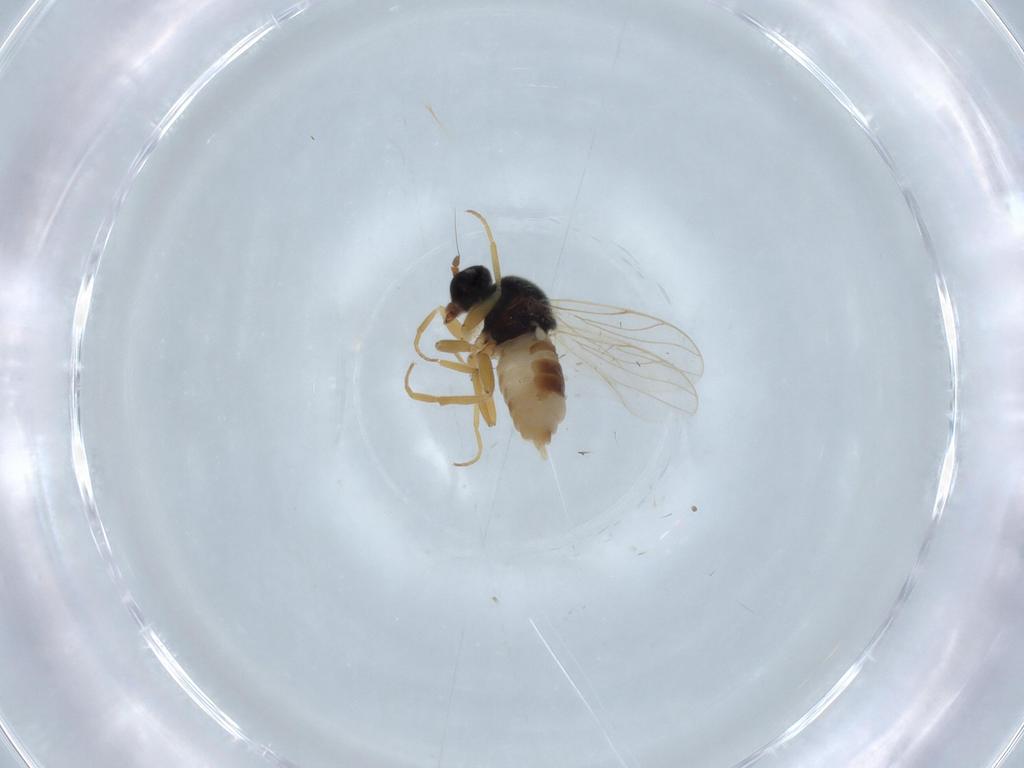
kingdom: Animalia
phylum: Arthropoda
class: Insecta
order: Diptera
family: Hybotidae
